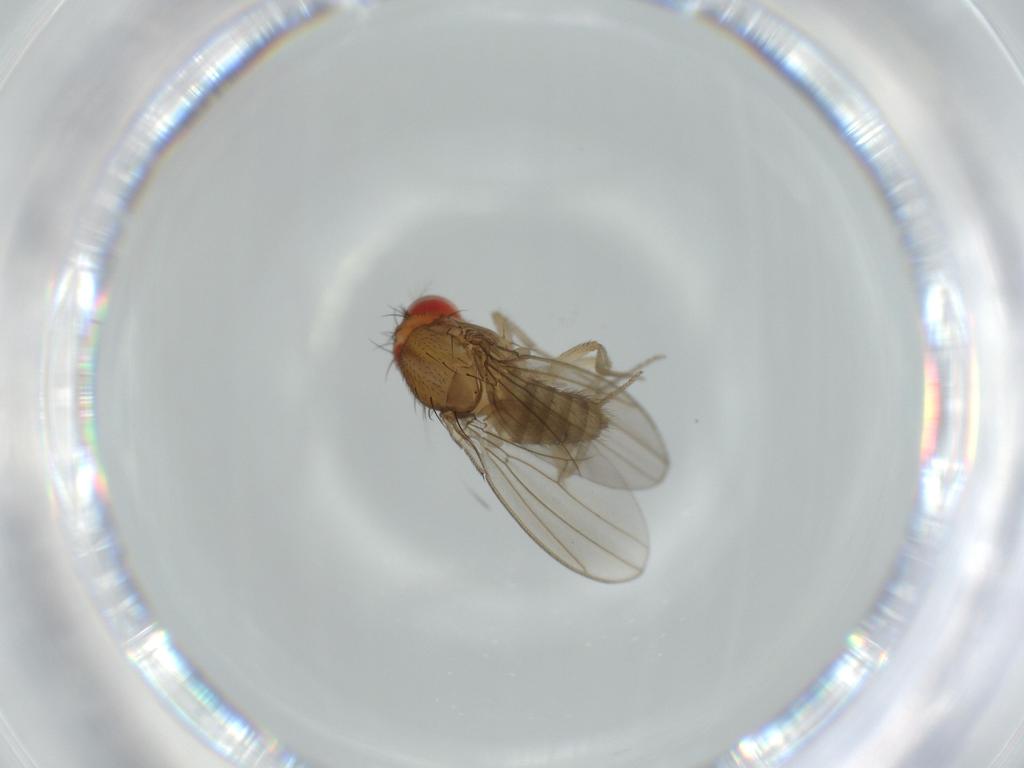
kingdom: Animalia
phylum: Arthropoda
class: Insecta
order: Diptera
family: Drosophilidae
